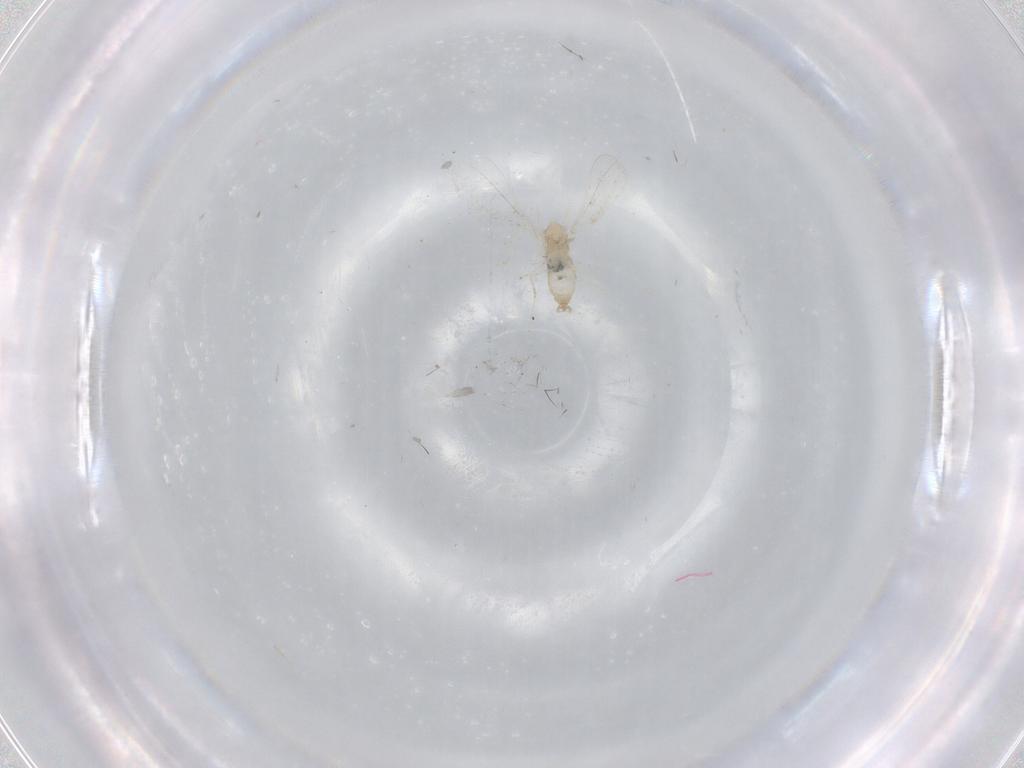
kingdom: Animalia
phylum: Arthropoda
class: Insecta
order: Diptera
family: Cecidomyiidae
